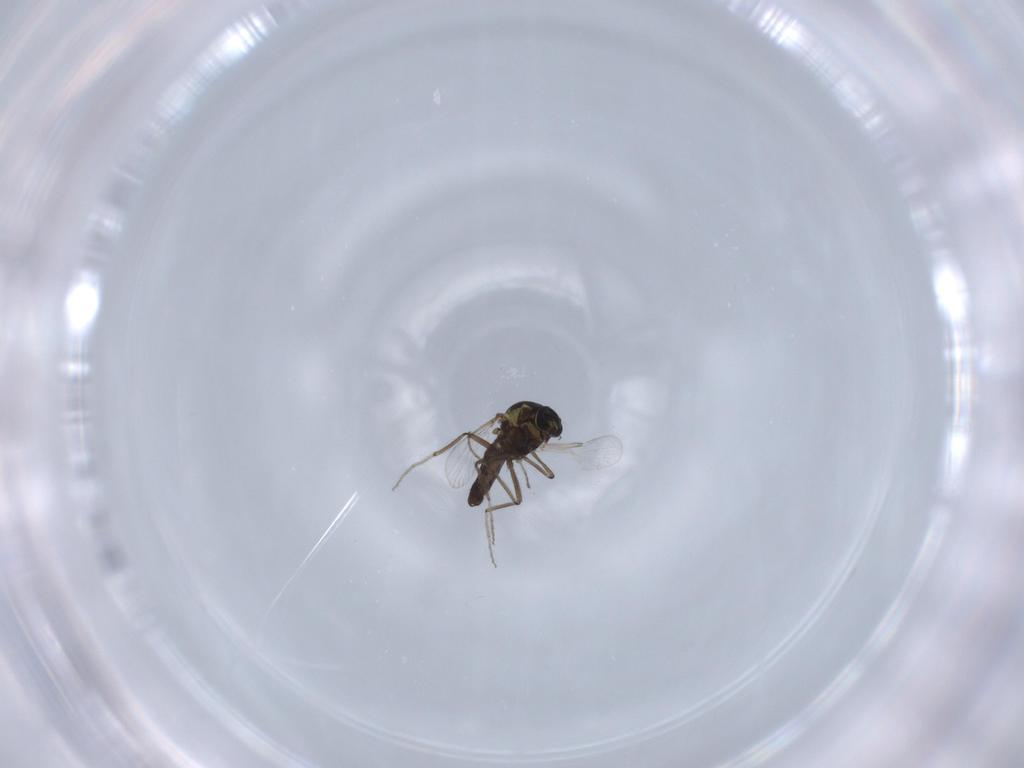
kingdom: Animalia
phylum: Arthropoda
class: Insecta
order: Diptera
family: Ceratopogonidae
